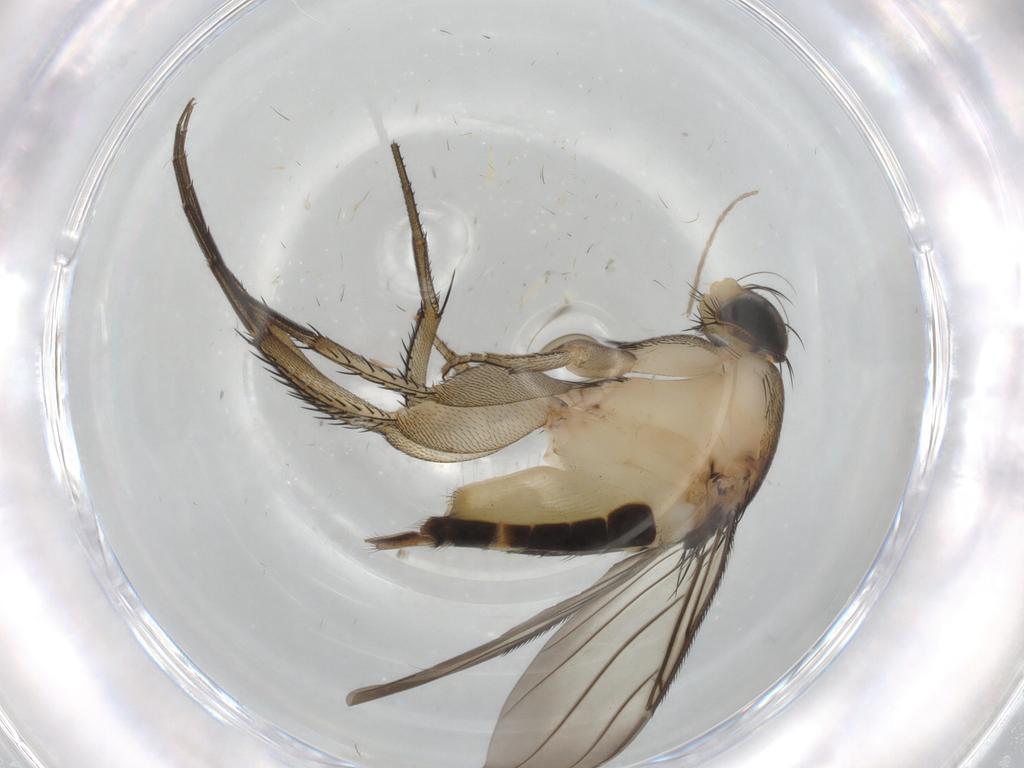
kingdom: Animalia
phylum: Arthropoda
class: Insecta
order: Diptera
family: Phoridae
